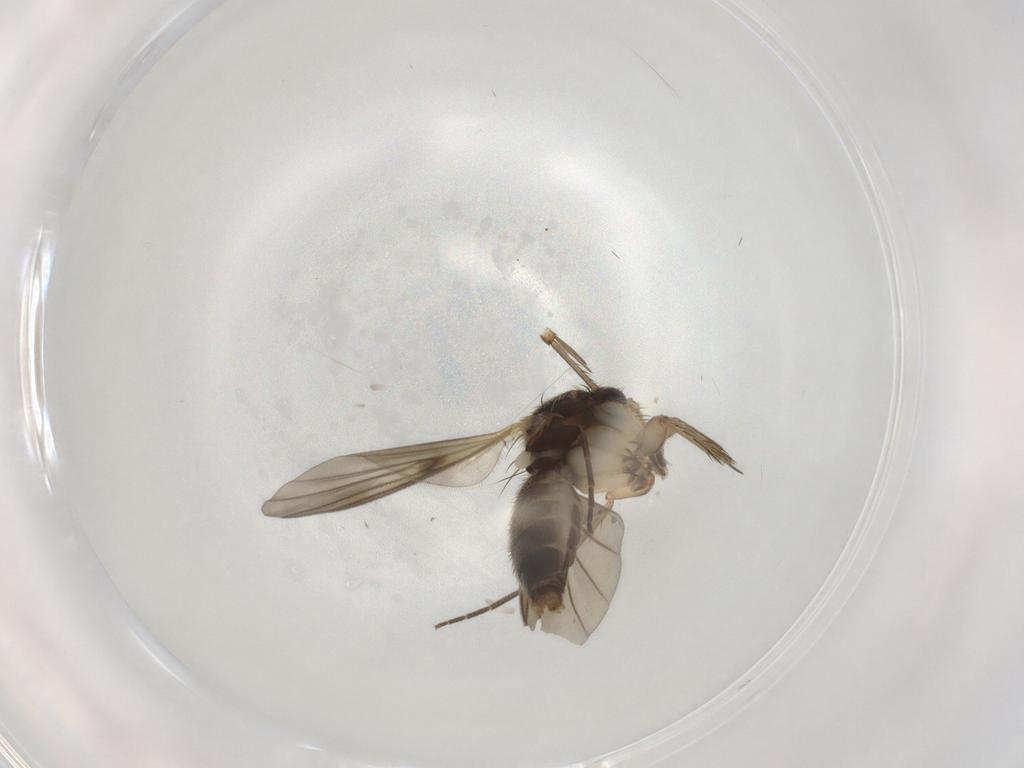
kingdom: Animalia
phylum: Arthropoda
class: Insecta
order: Diptera
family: Mycetophilidae
